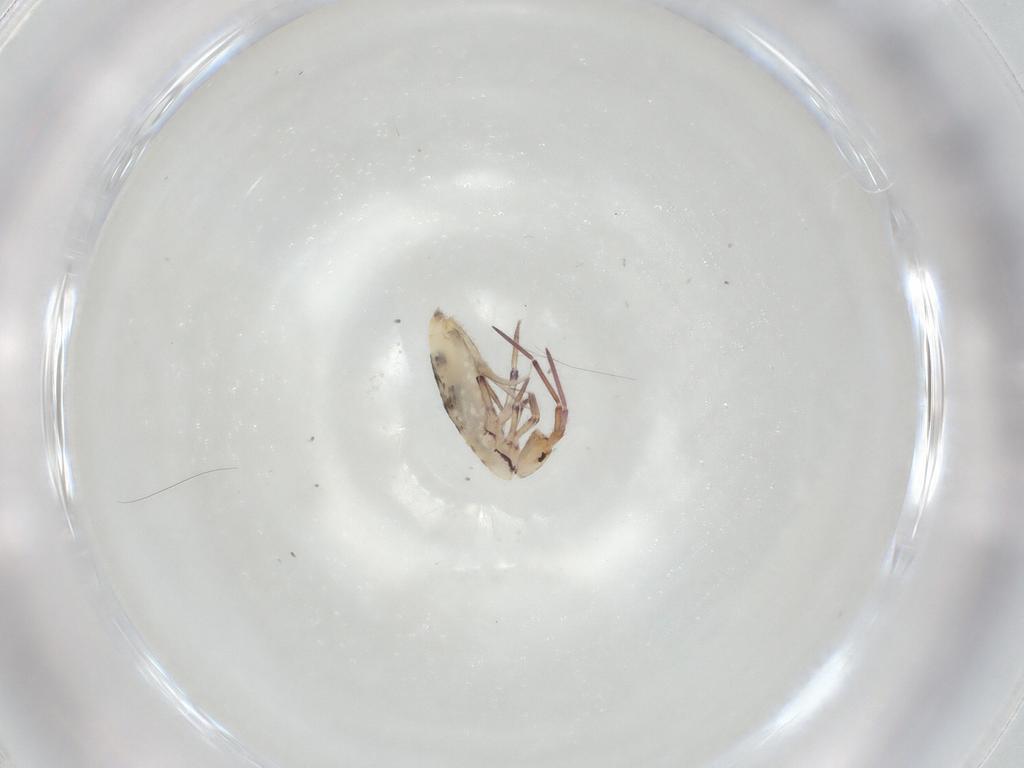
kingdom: Animalia
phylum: Arthropoda
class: Collembola
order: Entomobryomorpha
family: Entomobryidae
